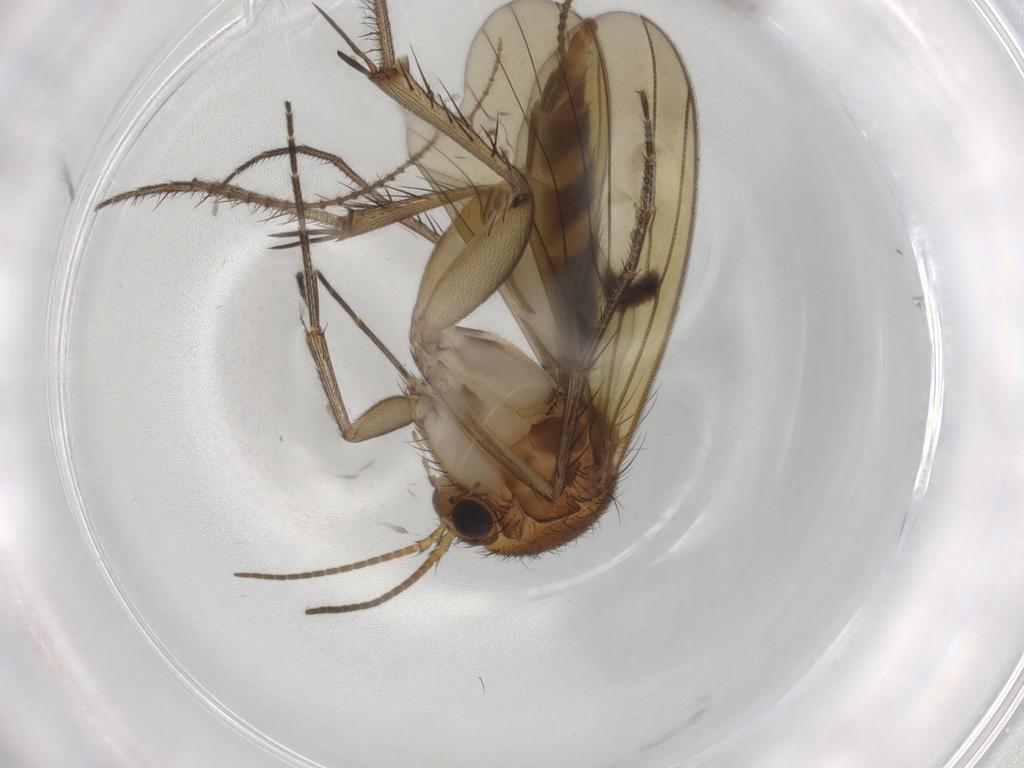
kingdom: Animalia
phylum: Arthropoda
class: Insecta
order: Diptera
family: Mycetophilidae
